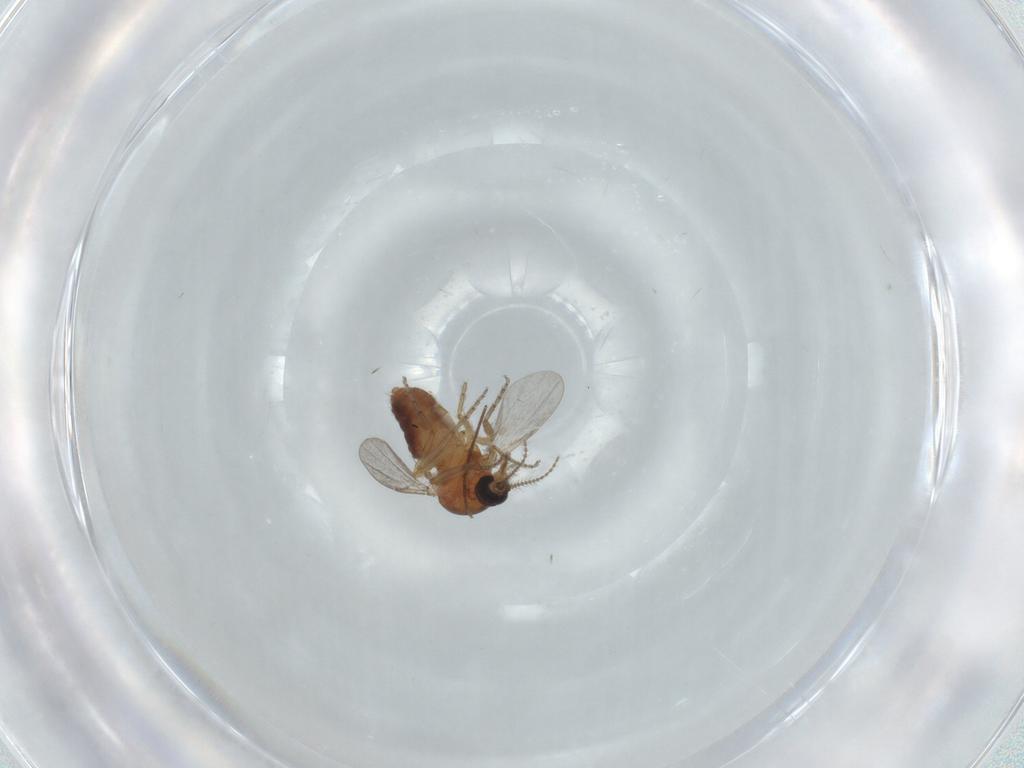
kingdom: Animalia
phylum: Arthropoda
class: Insecta
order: Diptera
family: Ceratopogonidae
